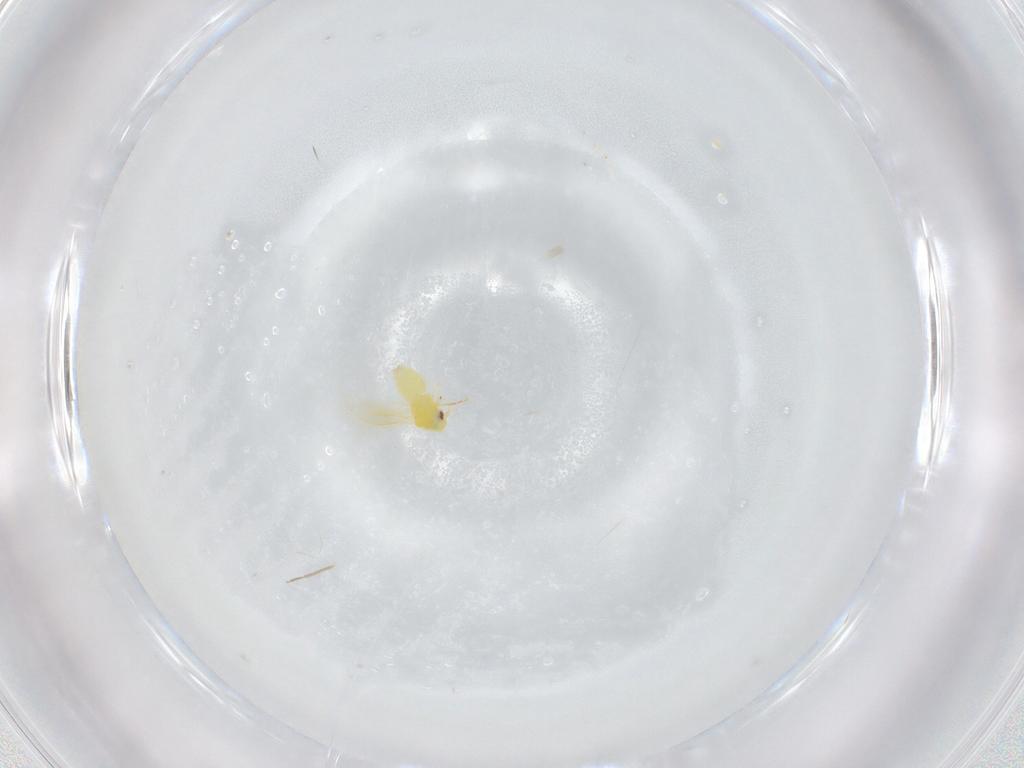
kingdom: Animalia
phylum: Arthropoda
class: Insecta
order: Hemiptera
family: Aleyrodidae
